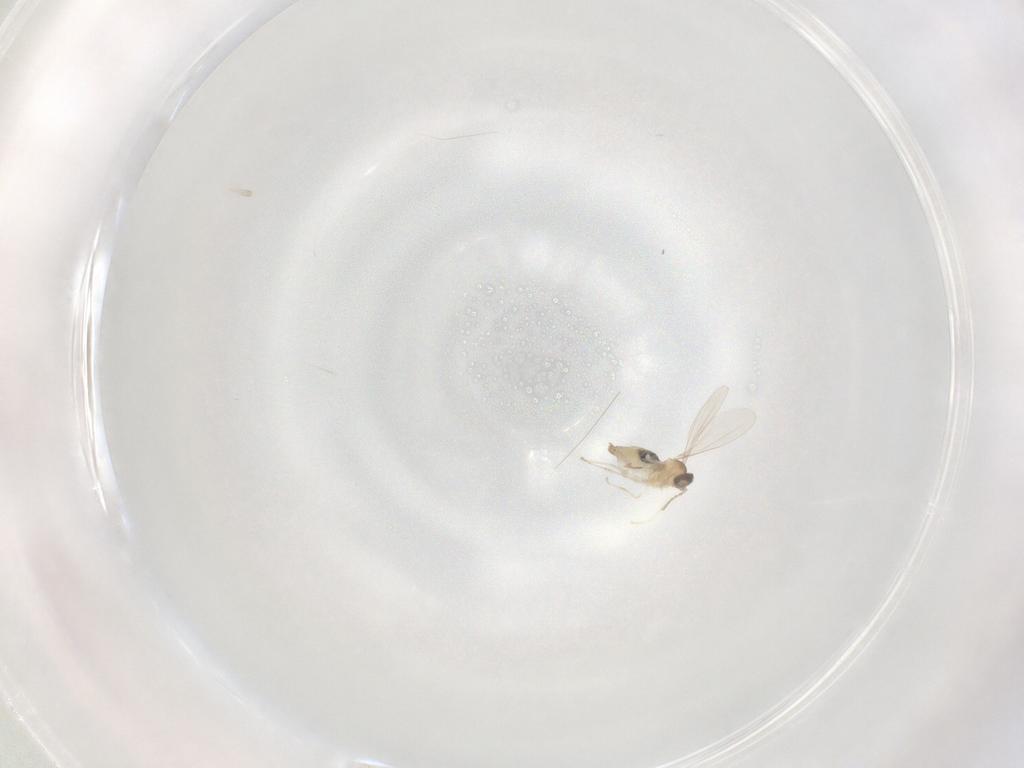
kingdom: Animalia
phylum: Arthropoda
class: Insecta
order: Diptera
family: Cecidomyiidae
